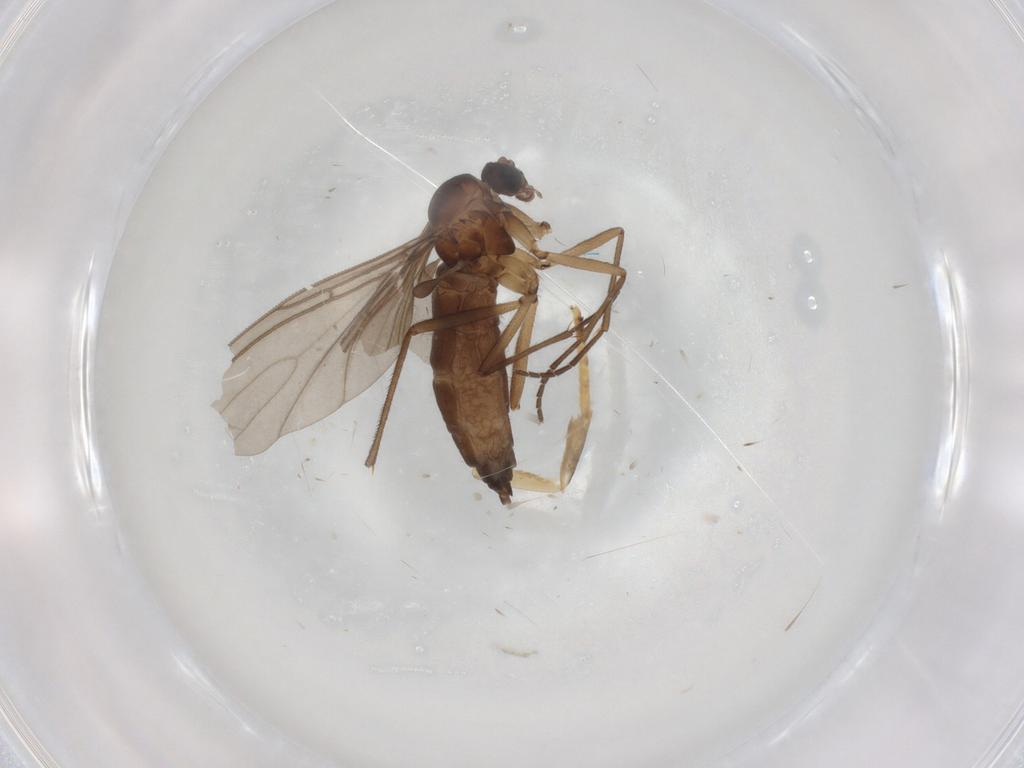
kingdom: Animalia
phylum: Arthropoda
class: Insecta
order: Diptera
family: Sciaridae
